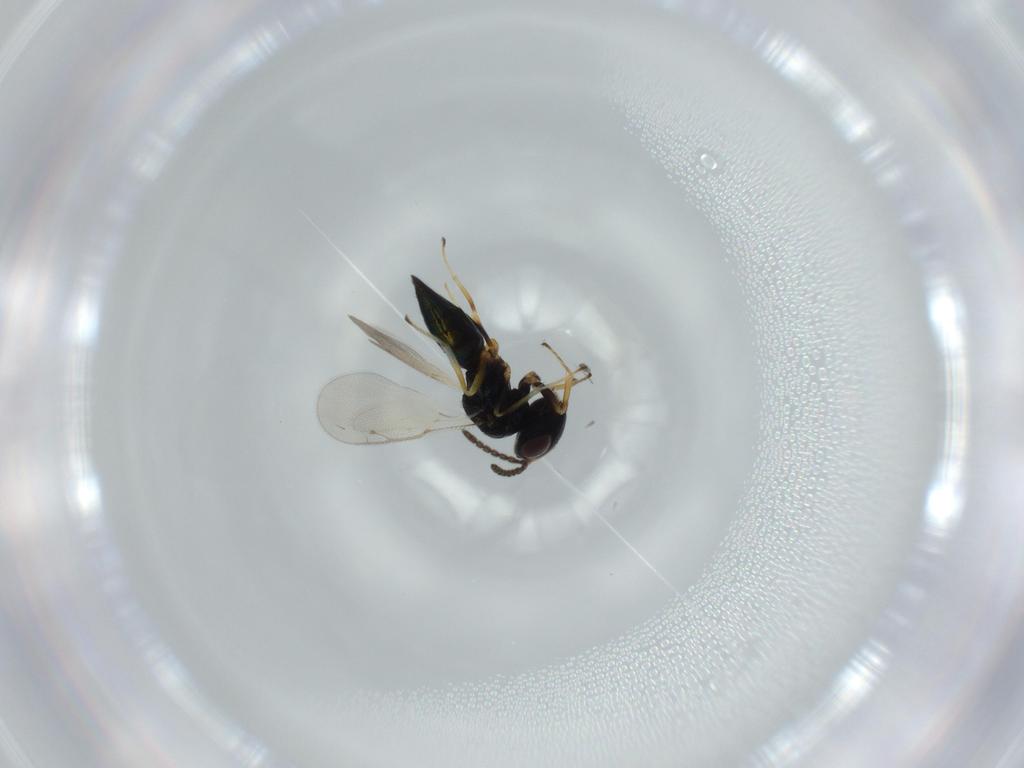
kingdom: Animalia
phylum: Arthropoda
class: Insecta
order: Hymenoptera
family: Pteromalidae
